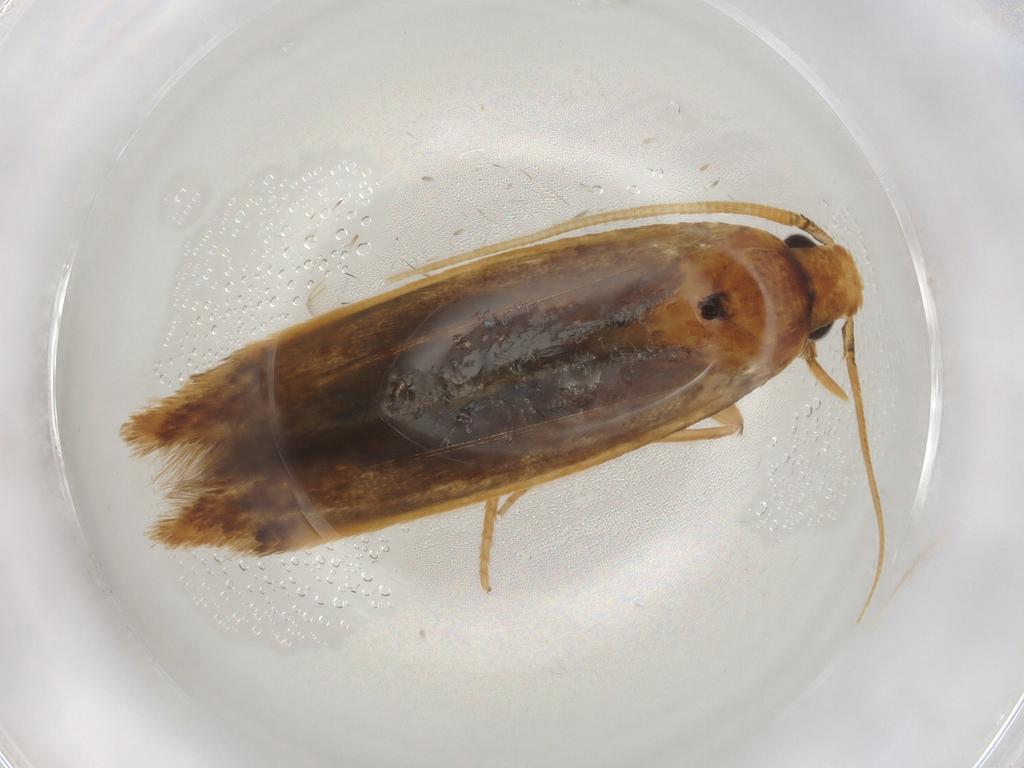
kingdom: Animalia
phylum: Arthropoda
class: Insecta
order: Lepidoptera
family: Tineidae
